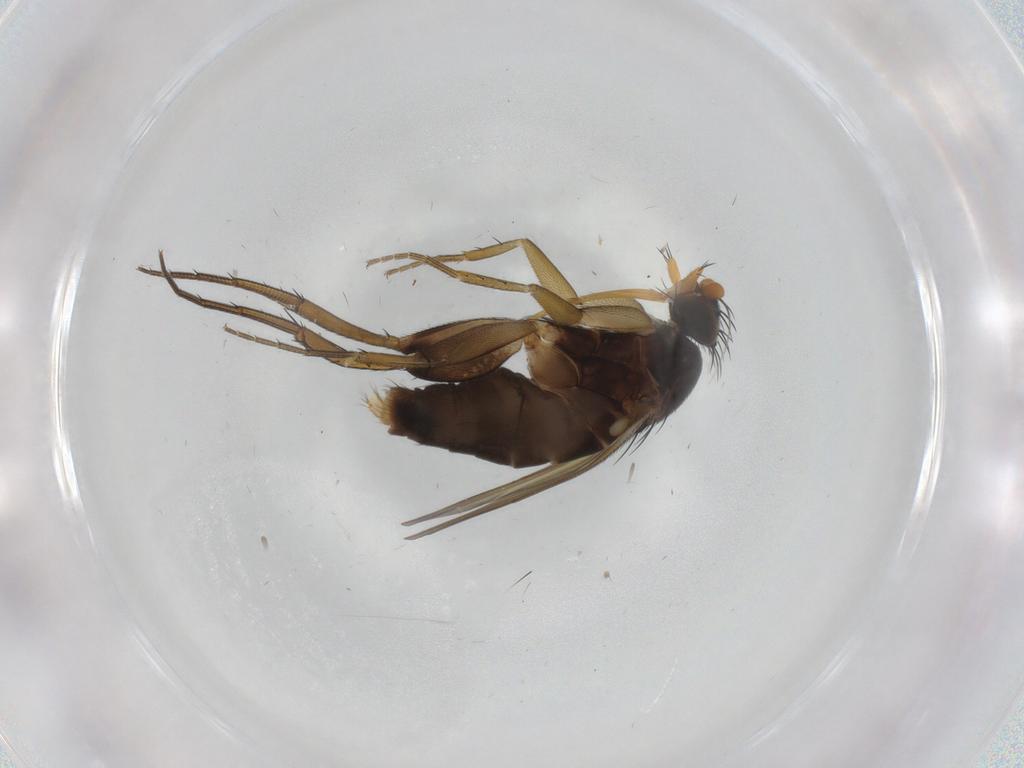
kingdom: Animalia
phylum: Arthropoda
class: Insecta
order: Diptera
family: Phoridae
